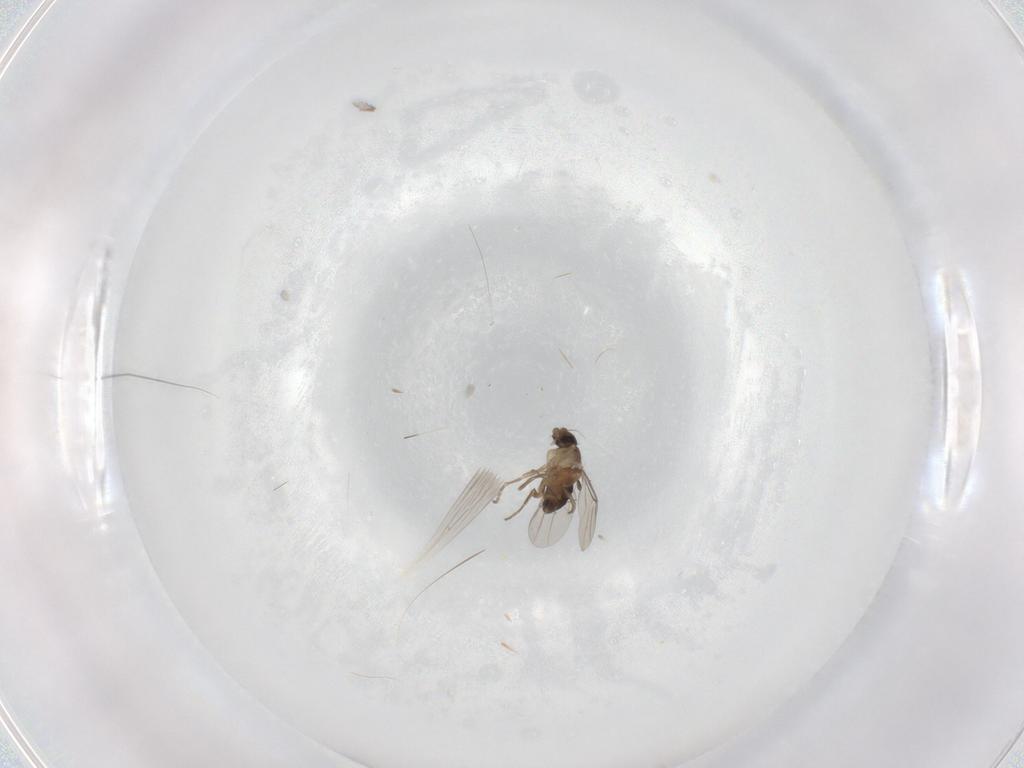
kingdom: Animalia
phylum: Arthropoda
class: Insecta
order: Diptera
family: Phoridae
